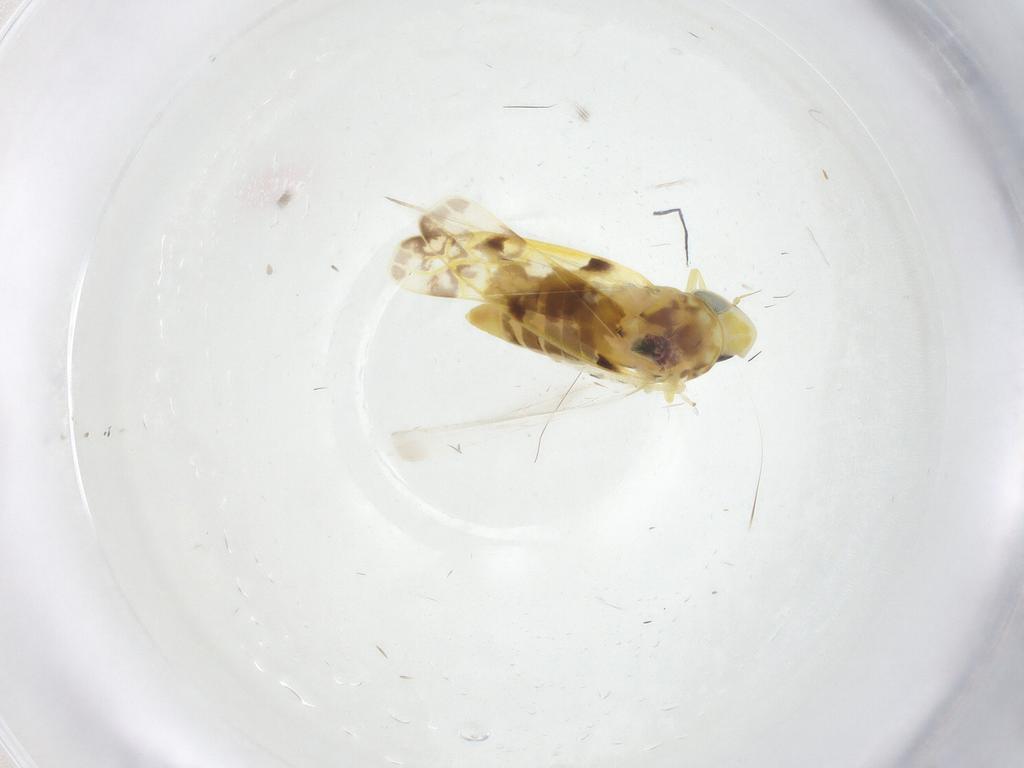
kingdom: Animalia
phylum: Arthropoda
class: Insecta
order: Hemiptera
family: Cicadellidae
